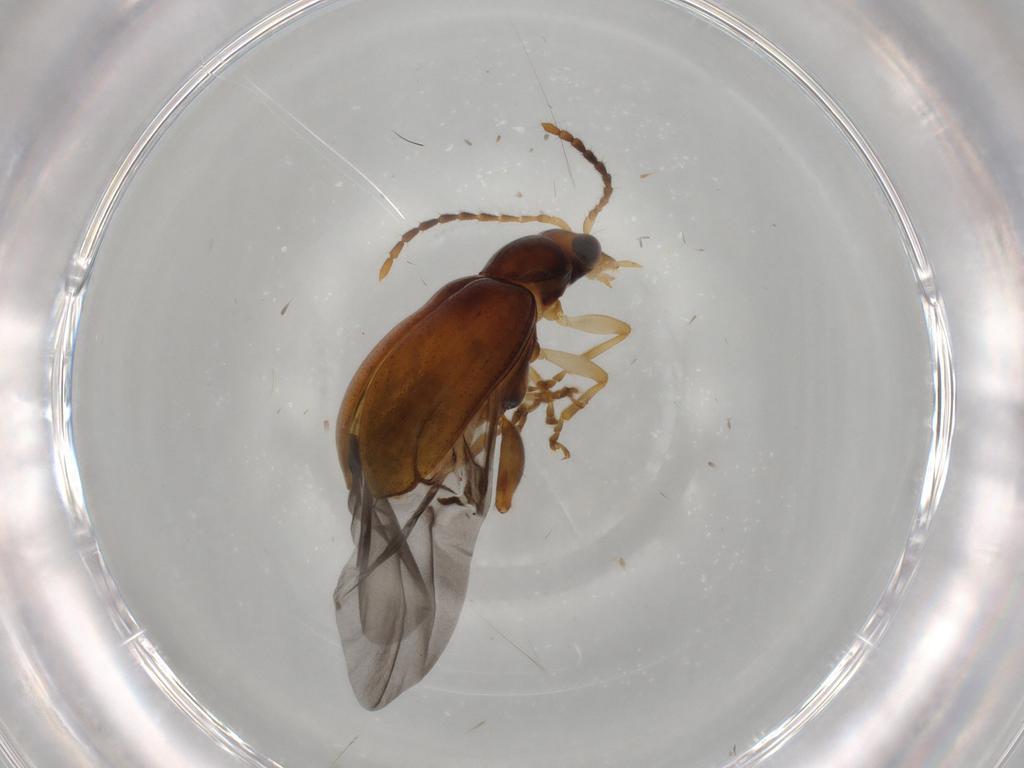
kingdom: Animalia
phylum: Arthropoda
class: Insecta
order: Coleoptera
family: Chrysomelidae
